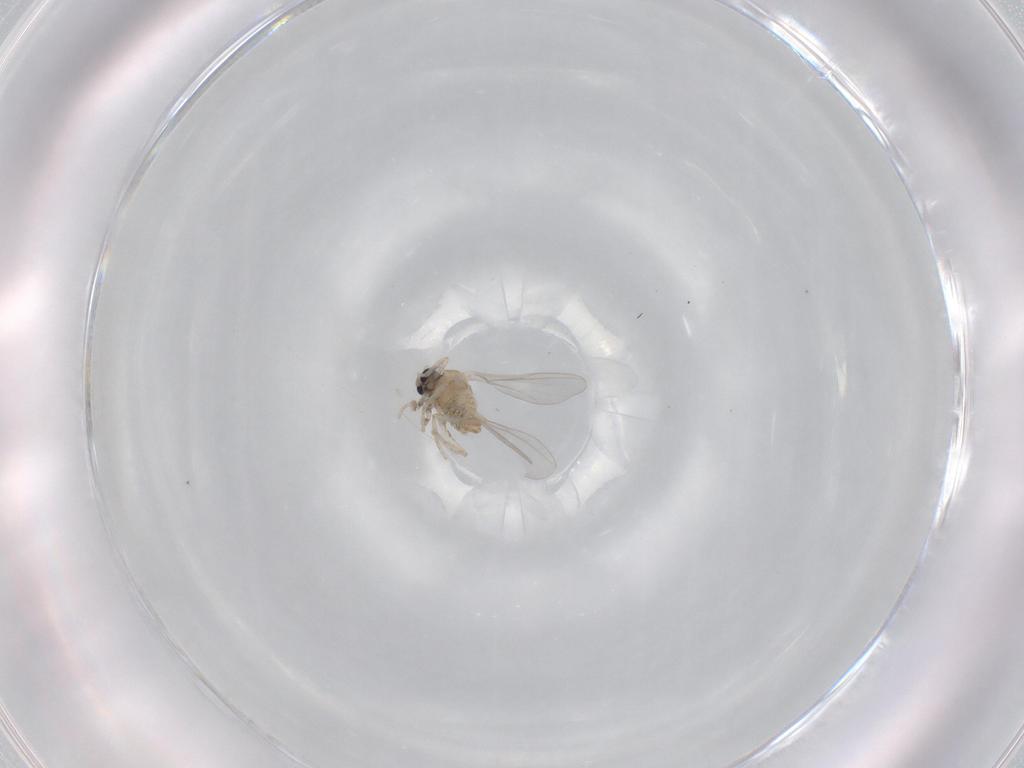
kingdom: Animalia
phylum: Arthropoda
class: Insecta
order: Diptera
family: Cecidomyiidae
